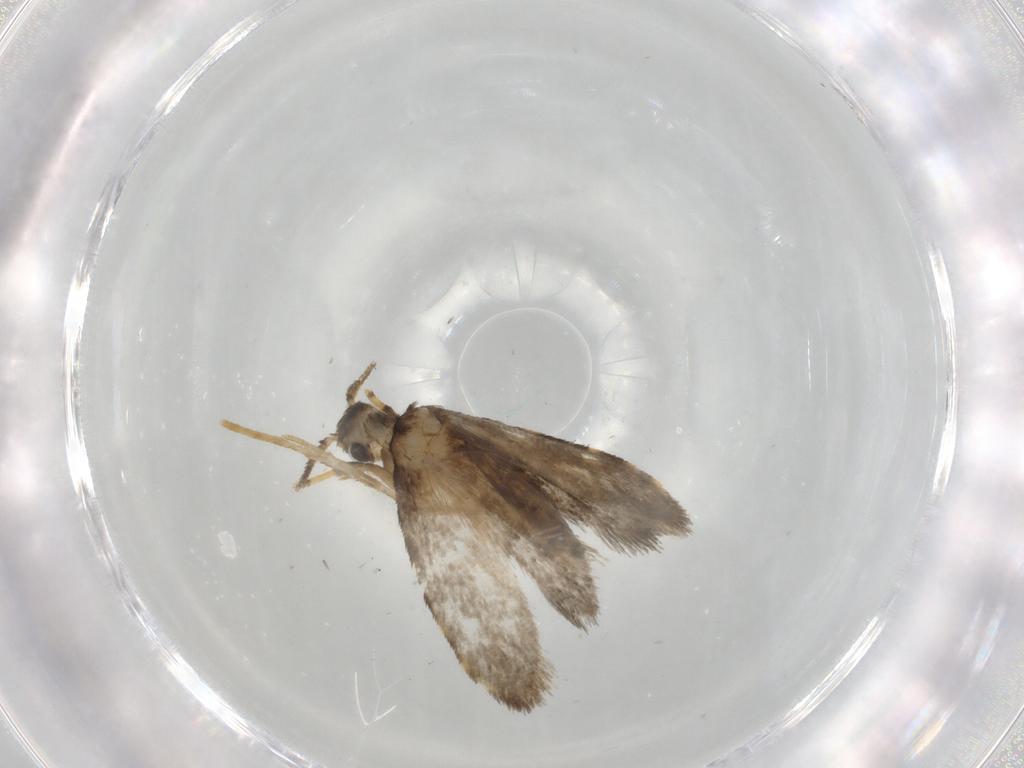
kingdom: Animalia
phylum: Arthropoda
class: Insecta
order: Lepidoptera
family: Psychidae
